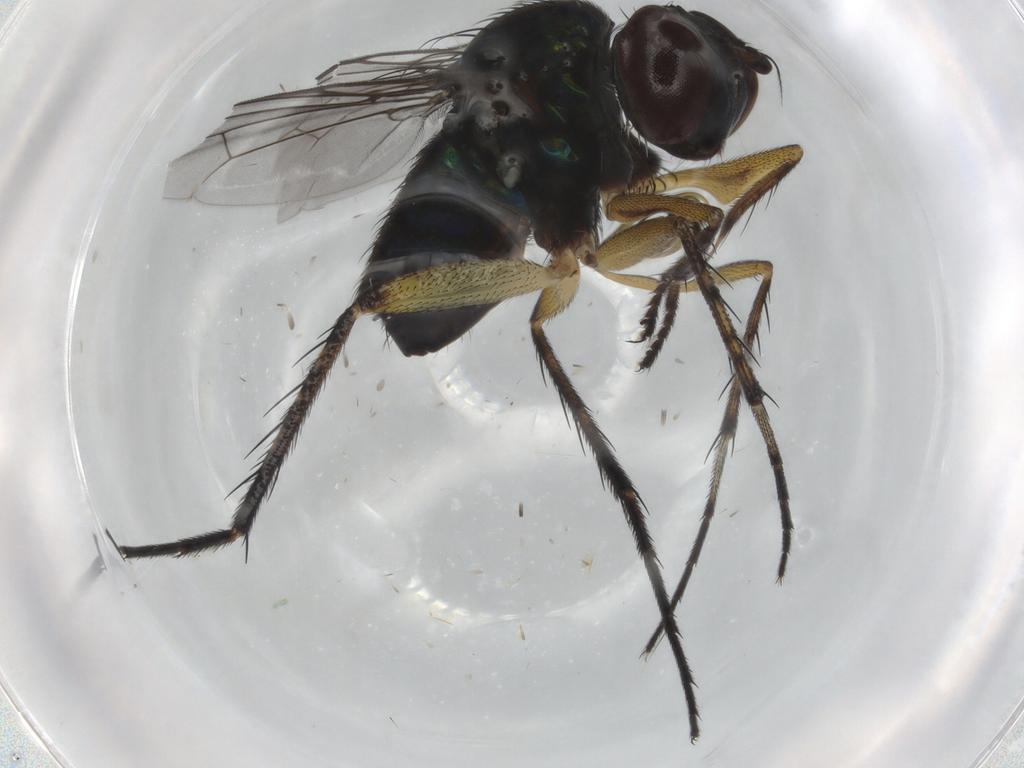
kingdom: Animalia
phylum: Arthropoda
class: Insecta
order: Diptera
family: Dolichopodidae
